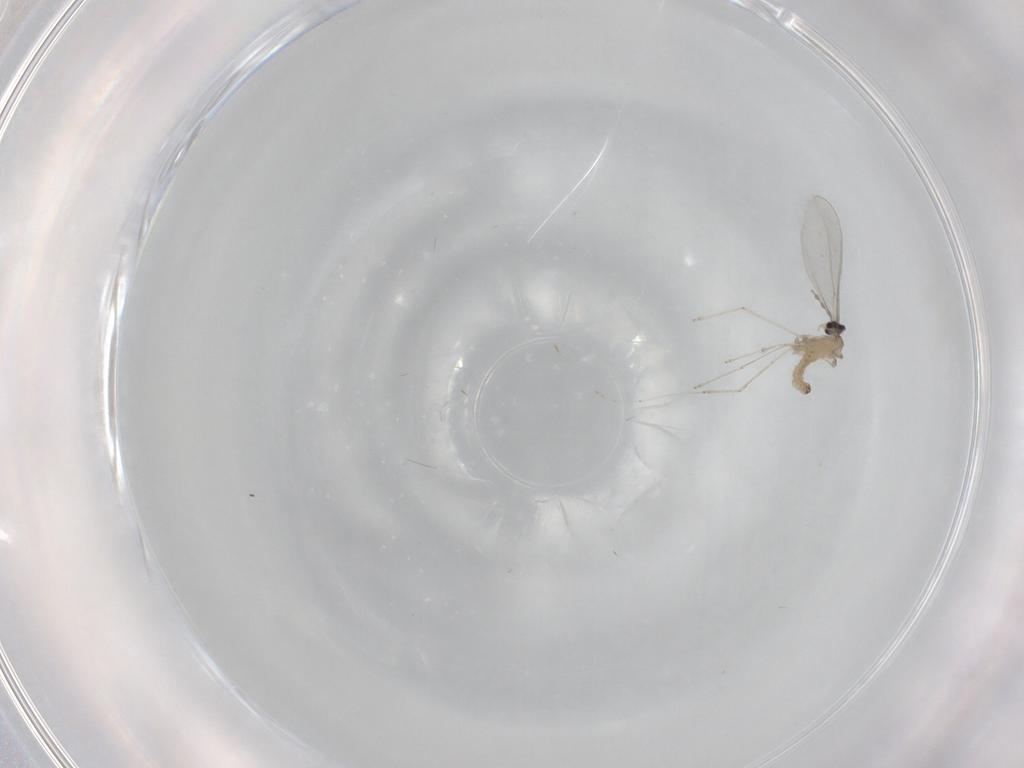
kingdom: Animalia
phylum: Arthropoda
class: Insecta
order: Diptera
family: Cecidomyiidae
